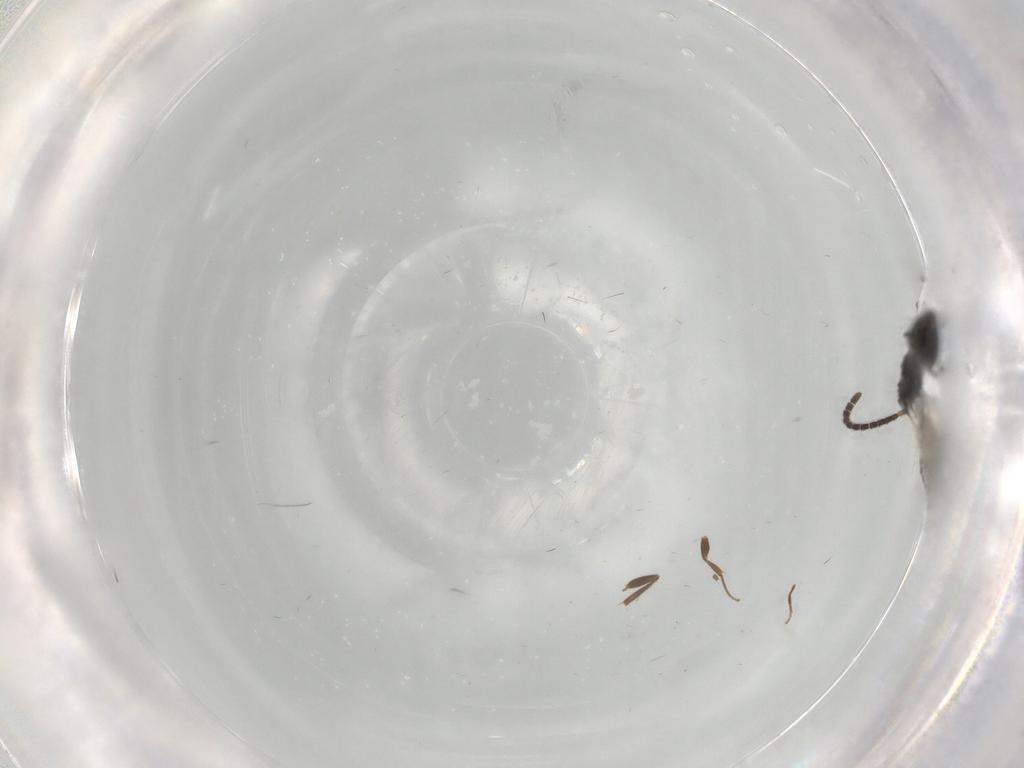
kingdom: Animalia
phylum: Arthropoda
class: Insecta
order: Hymenoptera
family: Bethylidae
